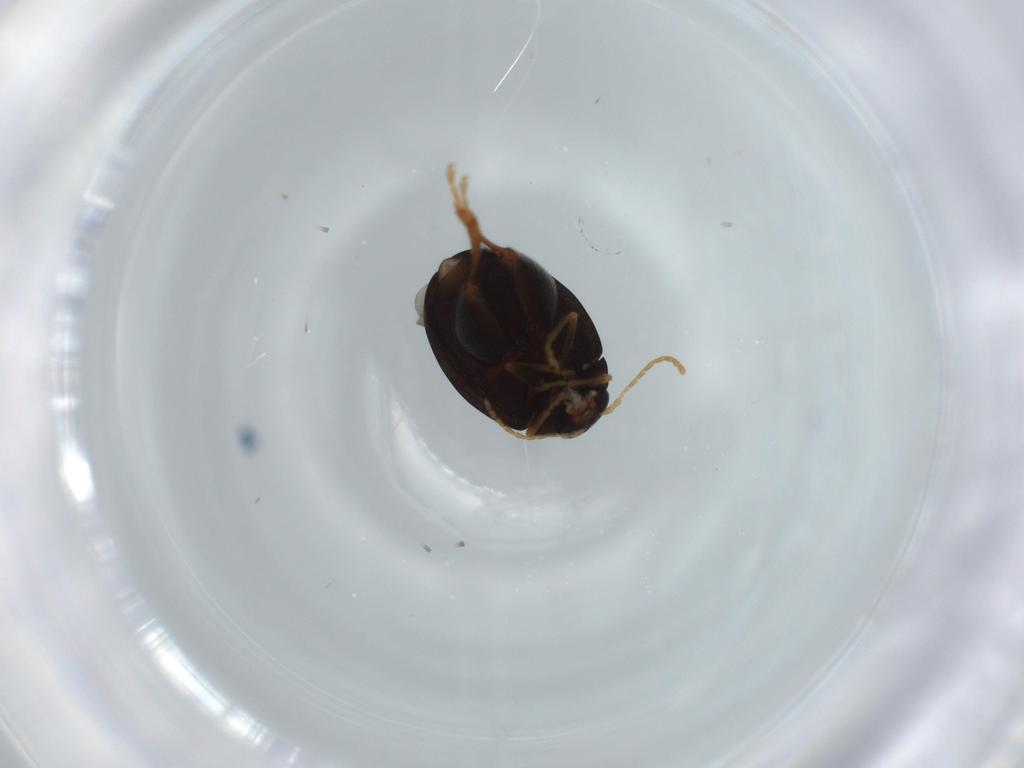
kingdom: Animalia
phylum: Arthropoda
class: Insecta
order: Coleoptera
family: Chrysomelidae
